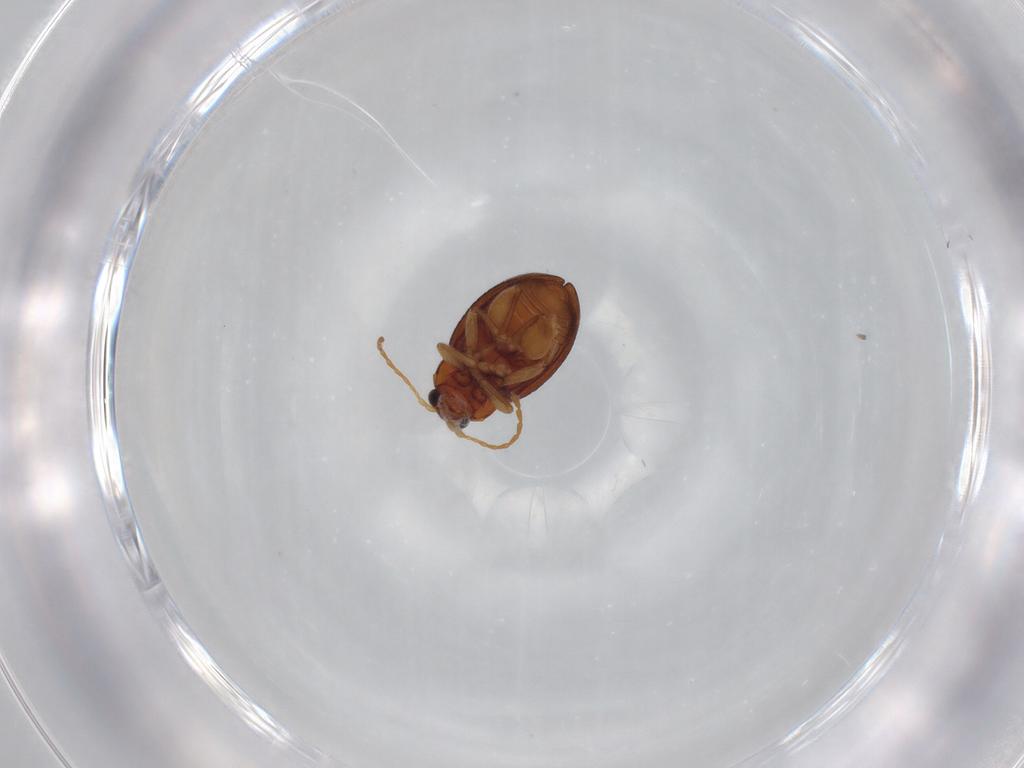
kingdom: Animalia
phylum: Arthropoda
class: Insecta
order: Coleoptera
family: Chrysomelidae
